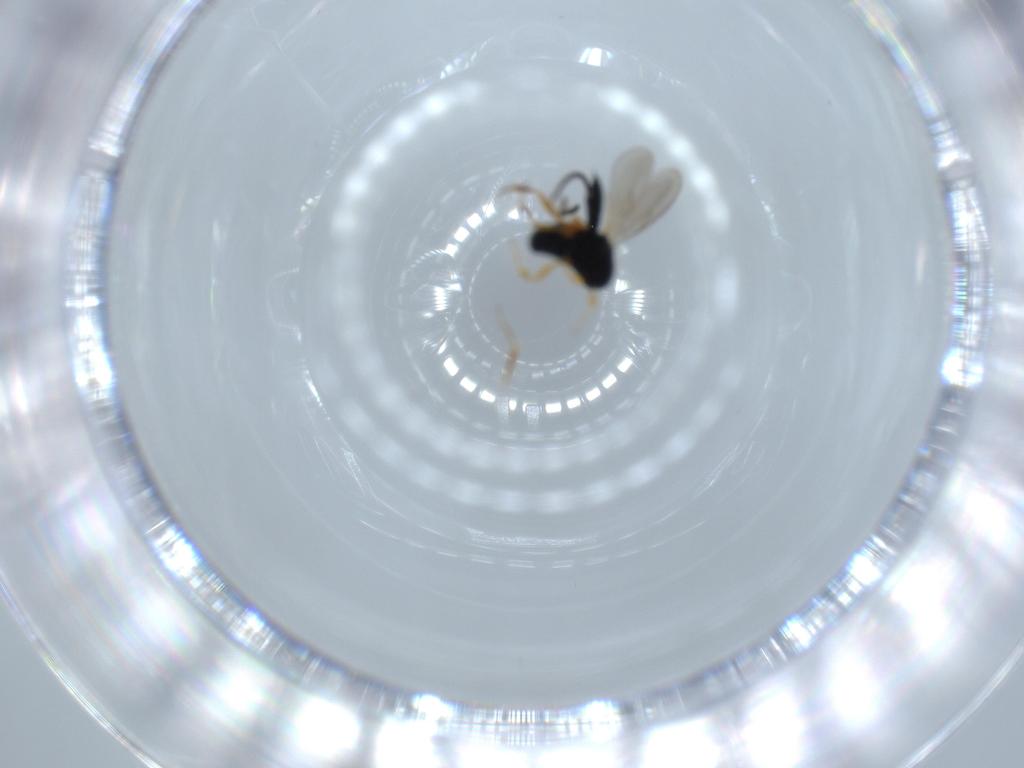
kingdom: Animalia
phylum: Arthropoda
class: Insecta
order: Hymenoptera
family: Scelionidae
